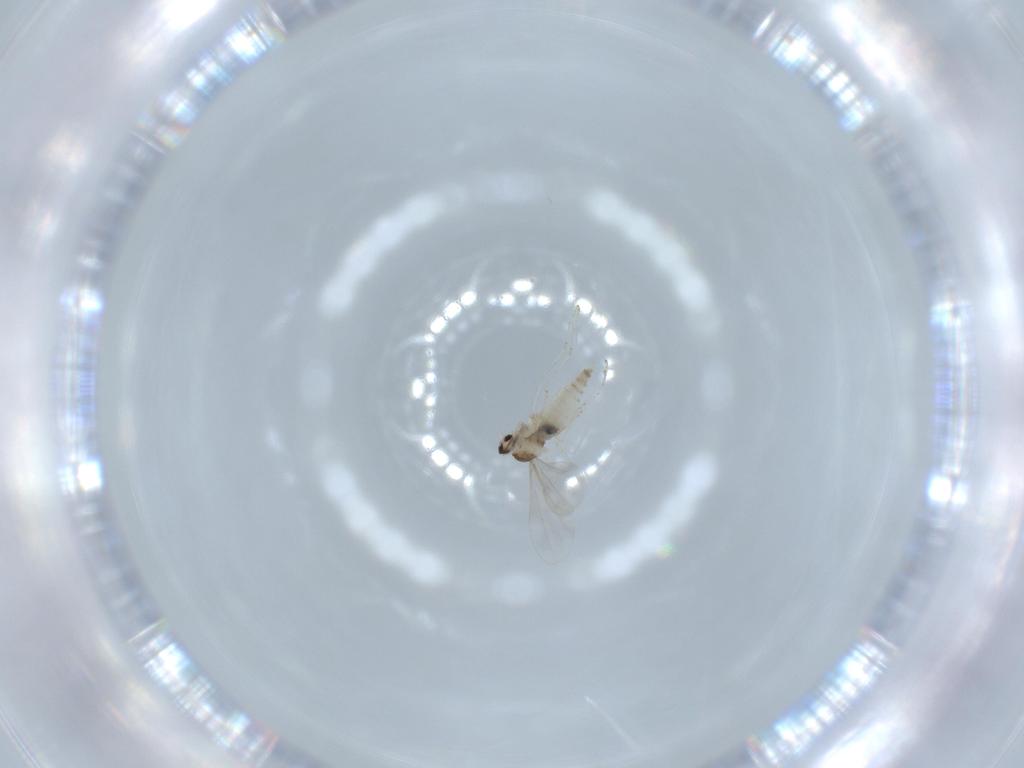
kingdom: Animalia
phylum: Arthropoda
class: Insecta
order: Diptera
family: Cecidomyiidae
